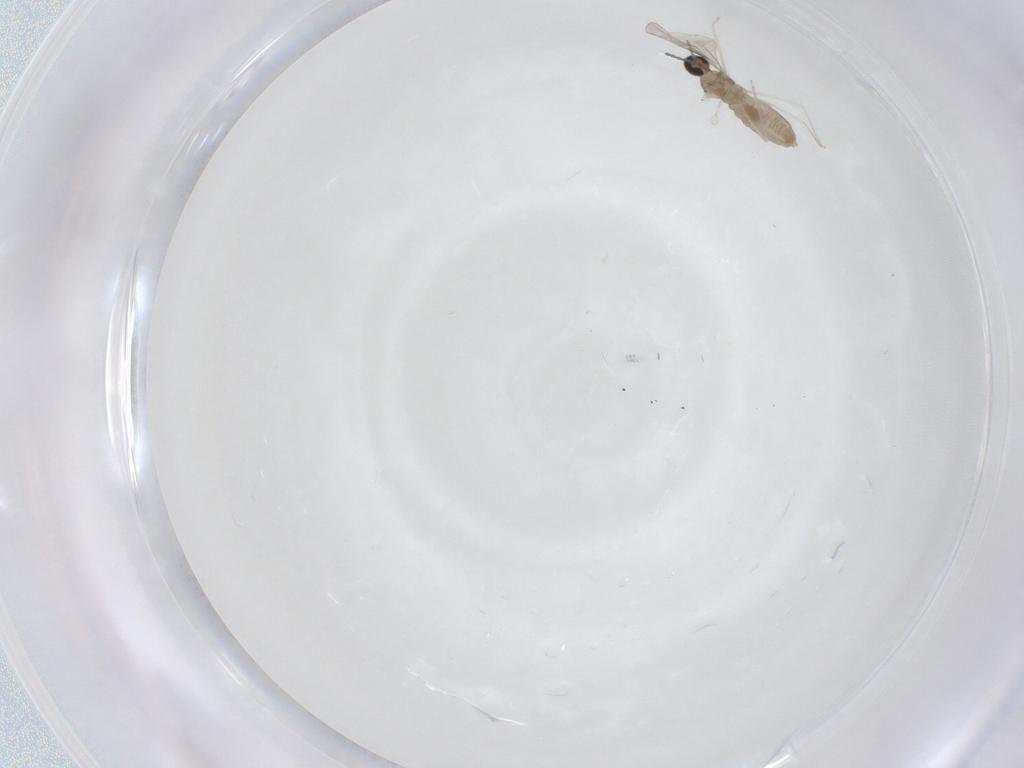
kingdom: Animalia
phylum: Arthropoda
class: Insecta
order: Diptera
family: Cecidomyiidae
